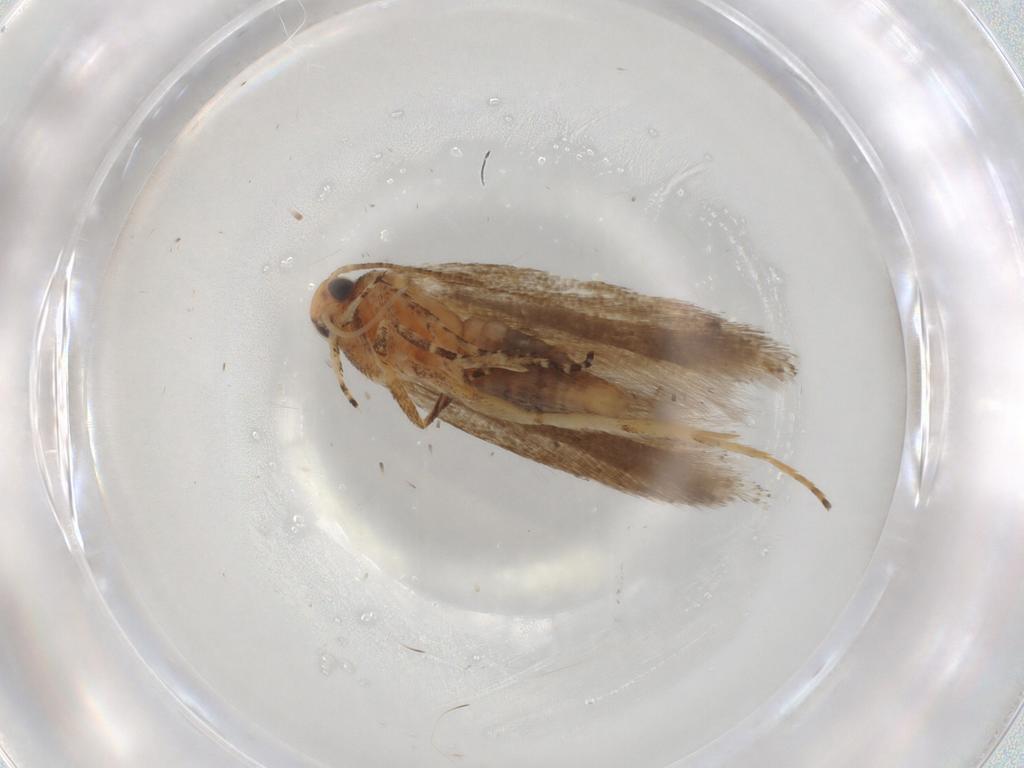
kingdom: Animalia
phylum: Arthropoda
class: Insecta
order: Lepidoptera
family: Gelechiidae
